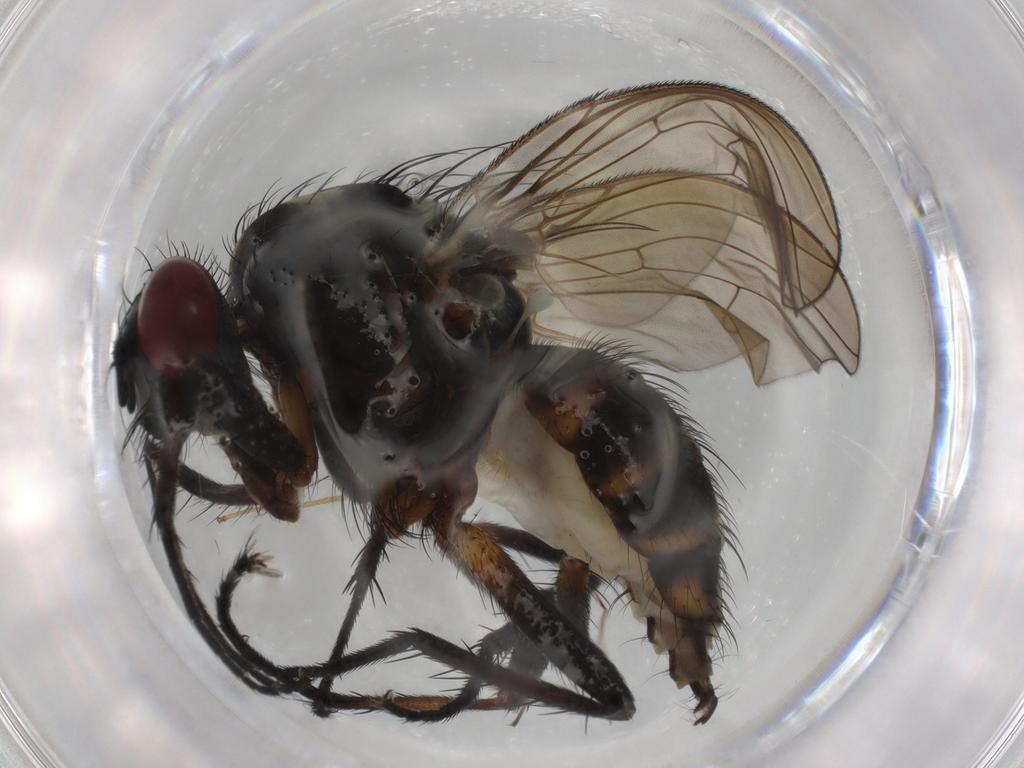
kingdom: Animalia
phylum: Arthropoda
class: Insecta
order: Diptera
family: Anthomyiidae
